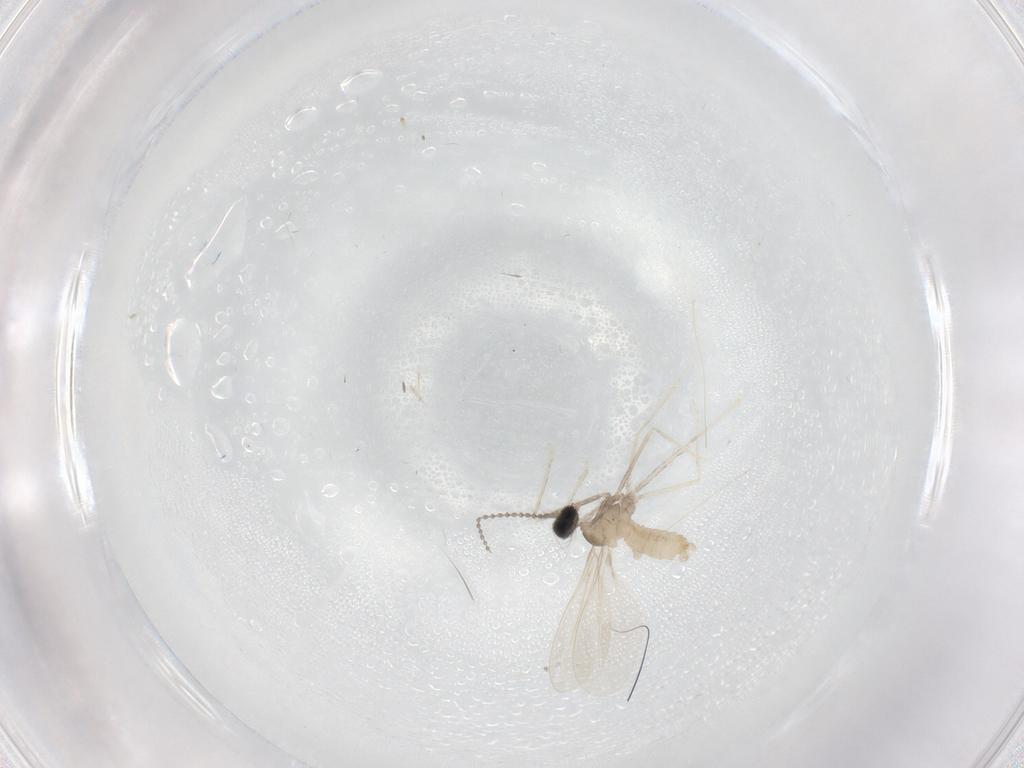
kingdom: Animalia
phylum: Arthropoda
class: Insecta
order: Diptera
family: Cecidomyiidae
